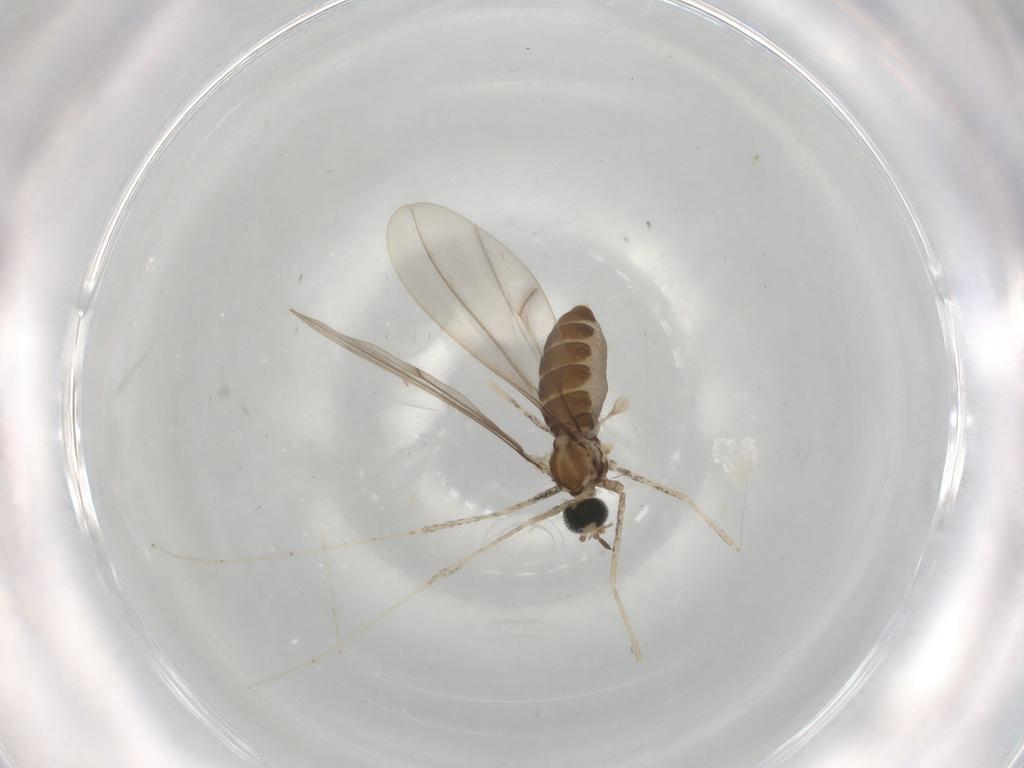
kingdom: Animalia
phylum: Arthropoda
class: Insecta
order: Diptera
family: Cecidomyiidae
